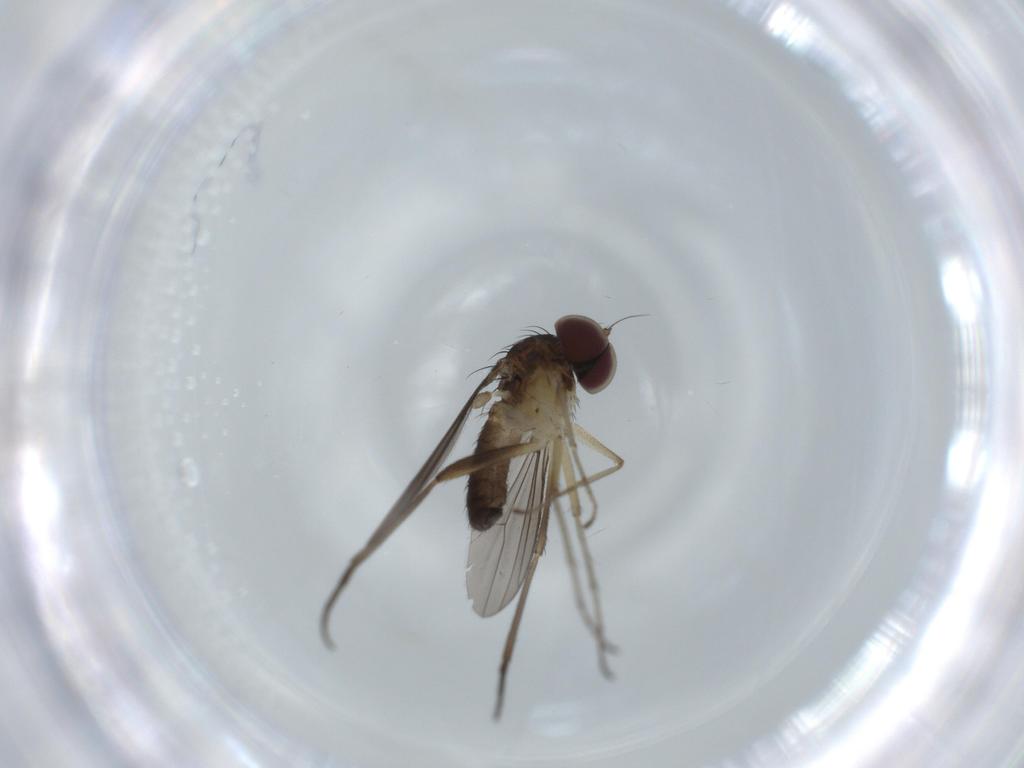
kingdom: Animalia
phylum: Arthropoda
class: Insecta
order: Diptera
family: Dolichopodidae
